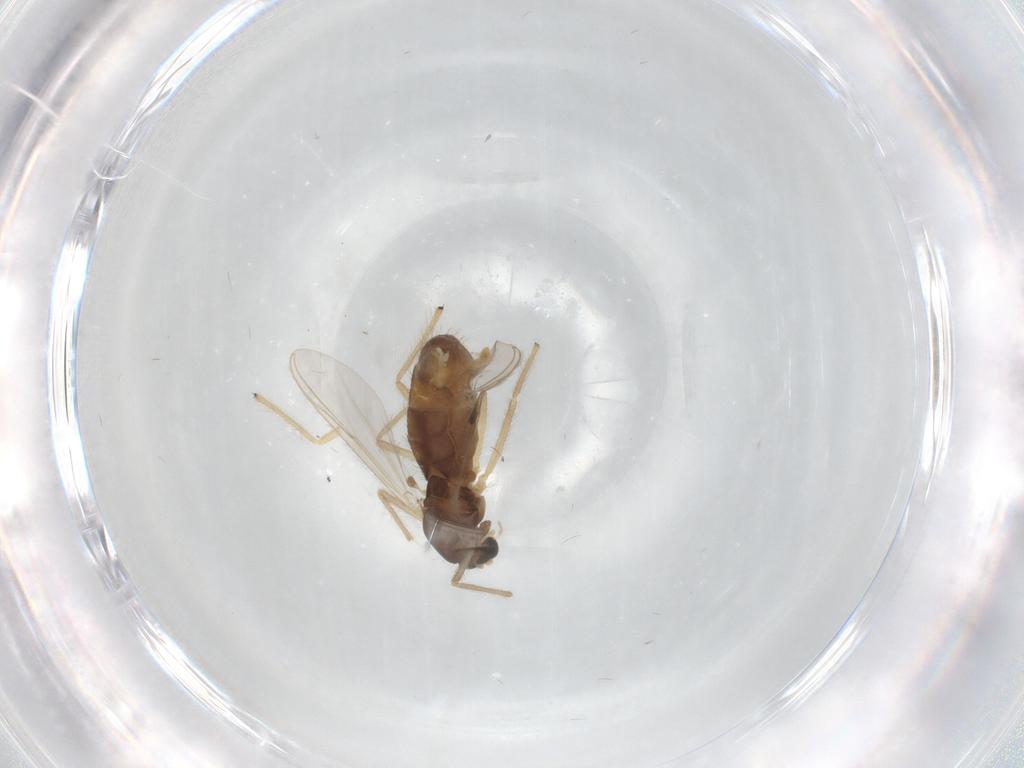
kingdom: Animalia
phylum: Arthropoda
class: Insecta
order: Diptera
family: Chironomidae
